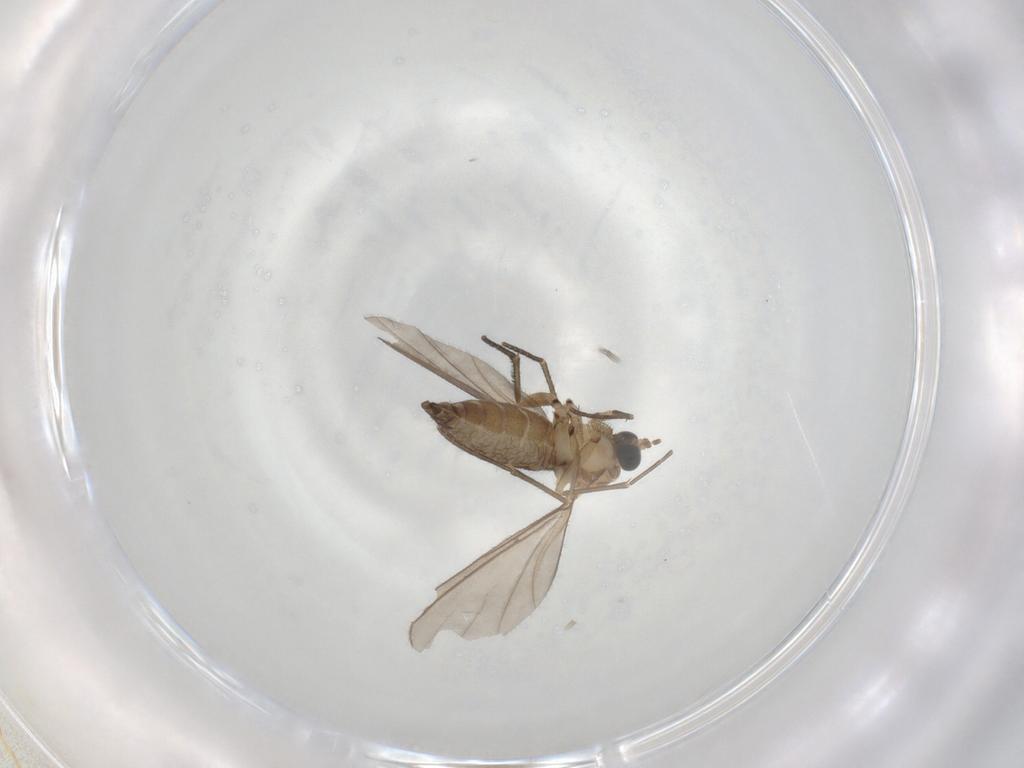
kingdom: Animalia
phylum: Arthropoda
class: Insecta
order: Diptera
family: Sciaridae
